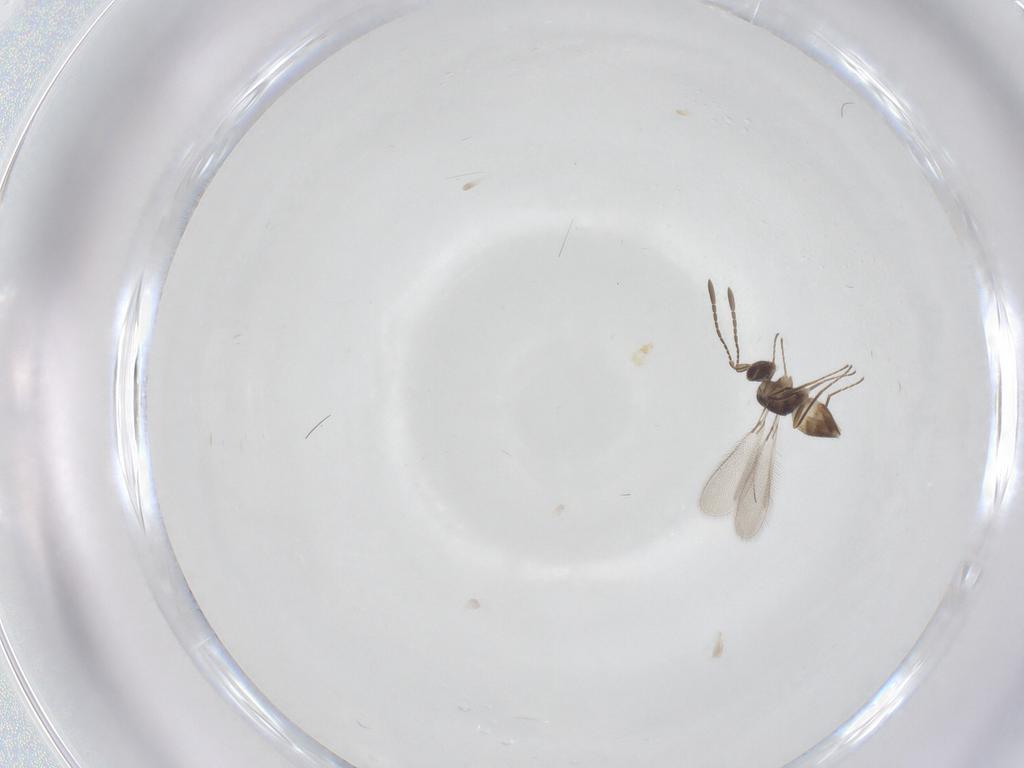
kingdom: Animalia
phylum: Arthropoda
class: Insecta
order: Hymenoptera
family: Mymaridae
